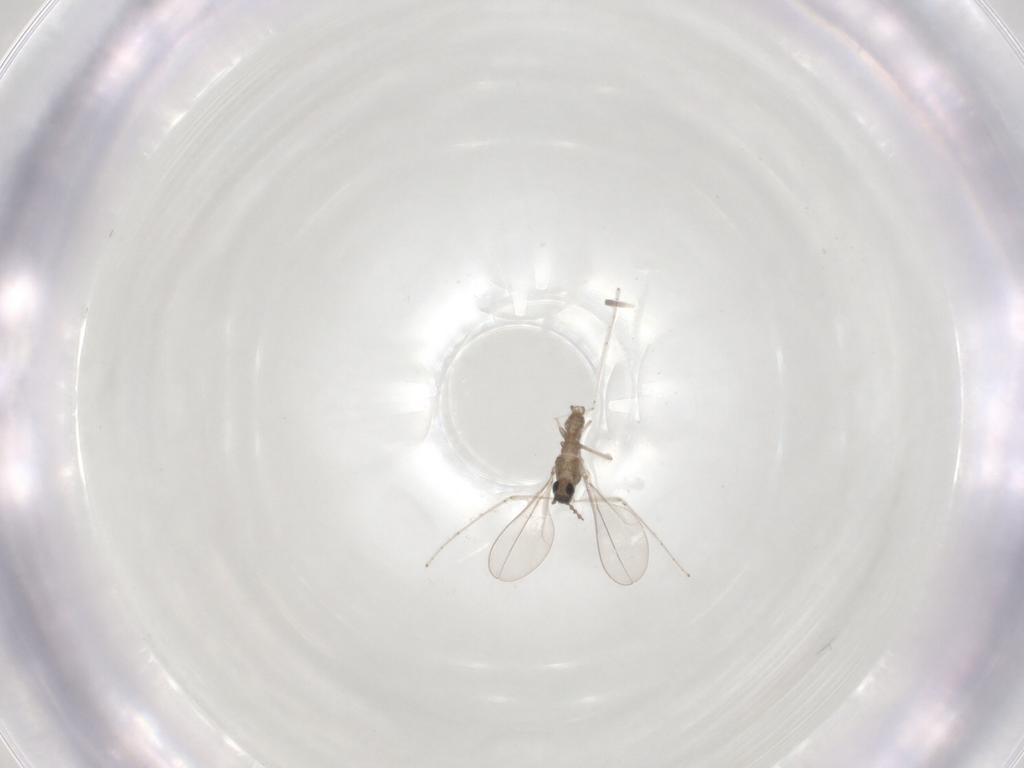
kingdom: Animalia
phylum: Arthropoda
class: Insecta
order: Diptera
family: Cecidomyiidae
